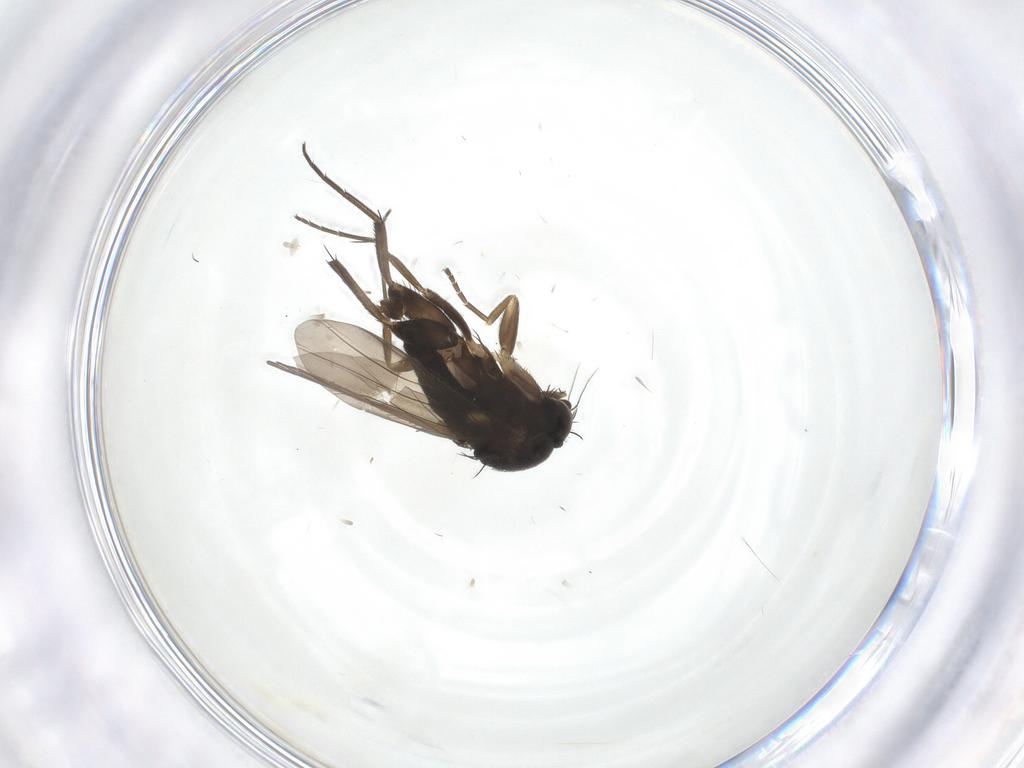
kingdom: Animalia
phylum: Arthropoda
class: Insecta
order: Diptera
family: Phoridae
